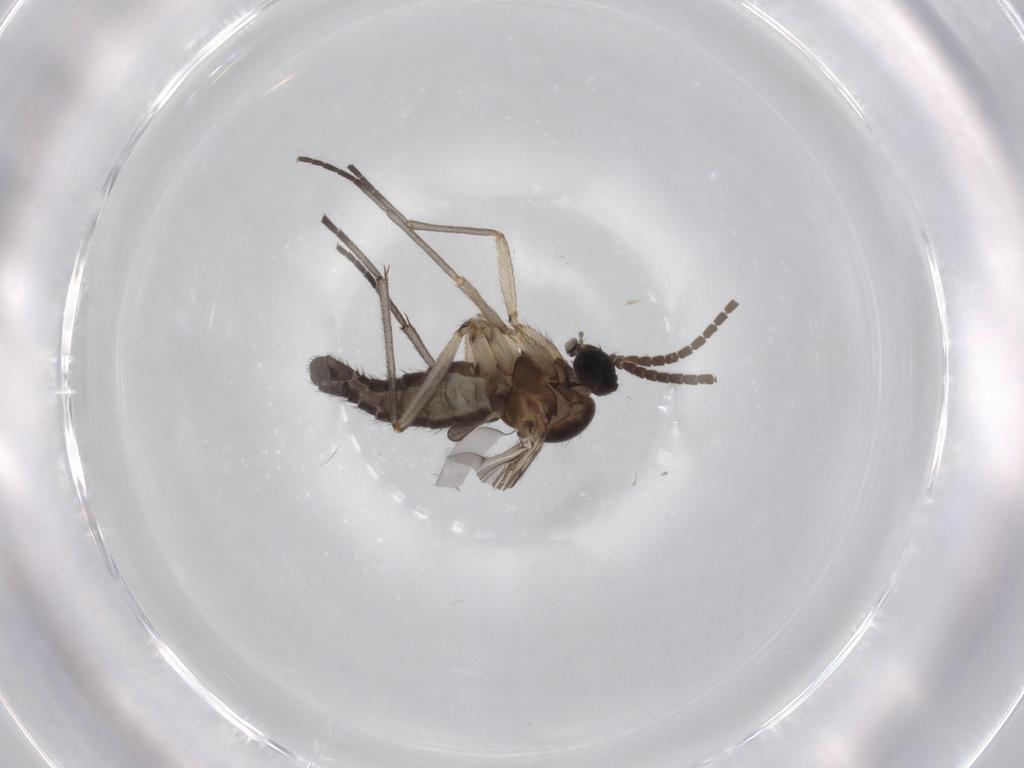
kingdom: Animalia
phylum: Arthropoda
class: Insecta
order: Diptera
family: Sciaridae
